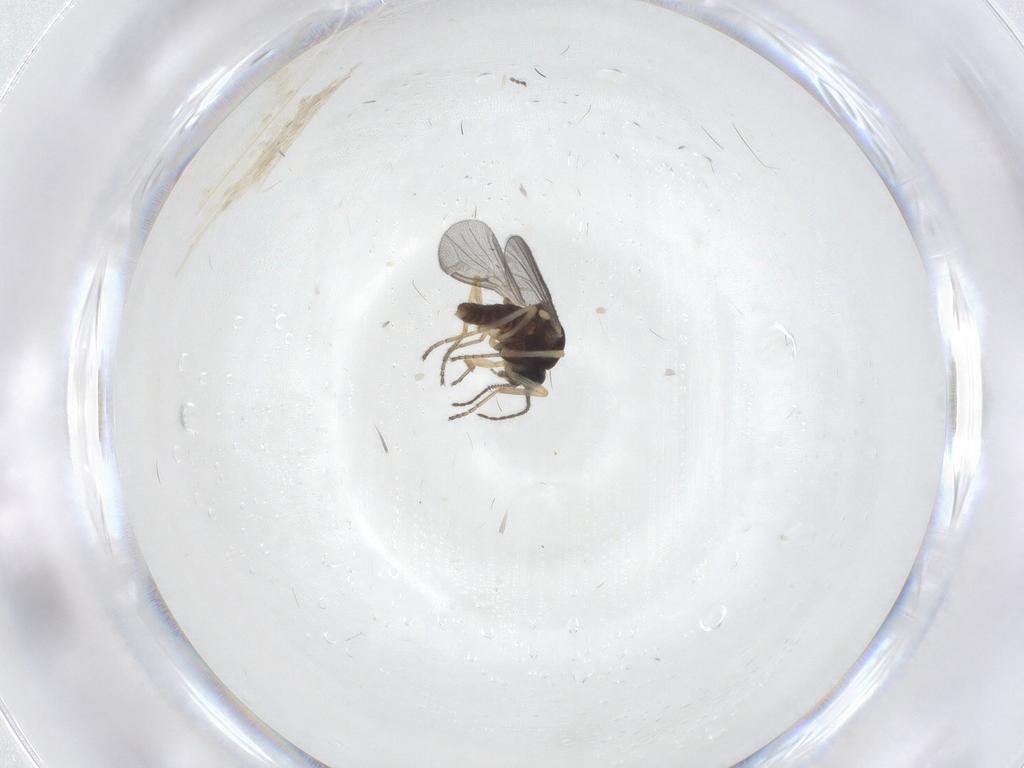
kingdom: Animalia
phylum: Arthropoda
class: Insecta
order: Diptera
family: Ceratopogonidae
